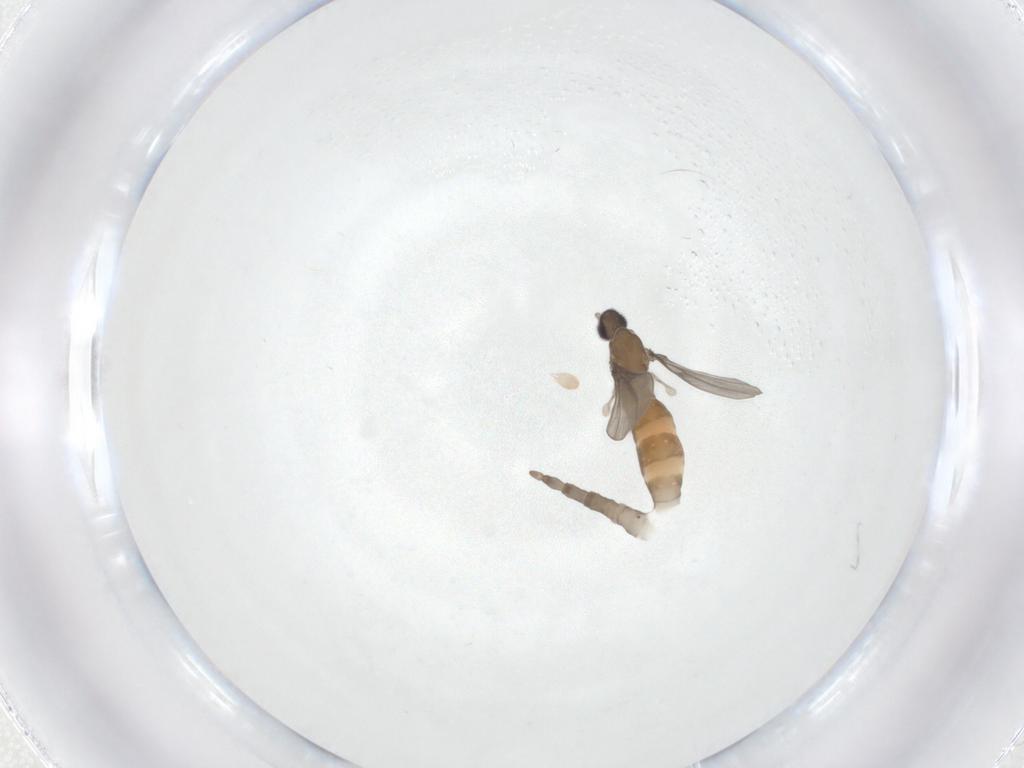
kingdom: Animalia
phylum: Arthropoda
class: Insecta
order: Diptera
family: Cecidomyiidae
